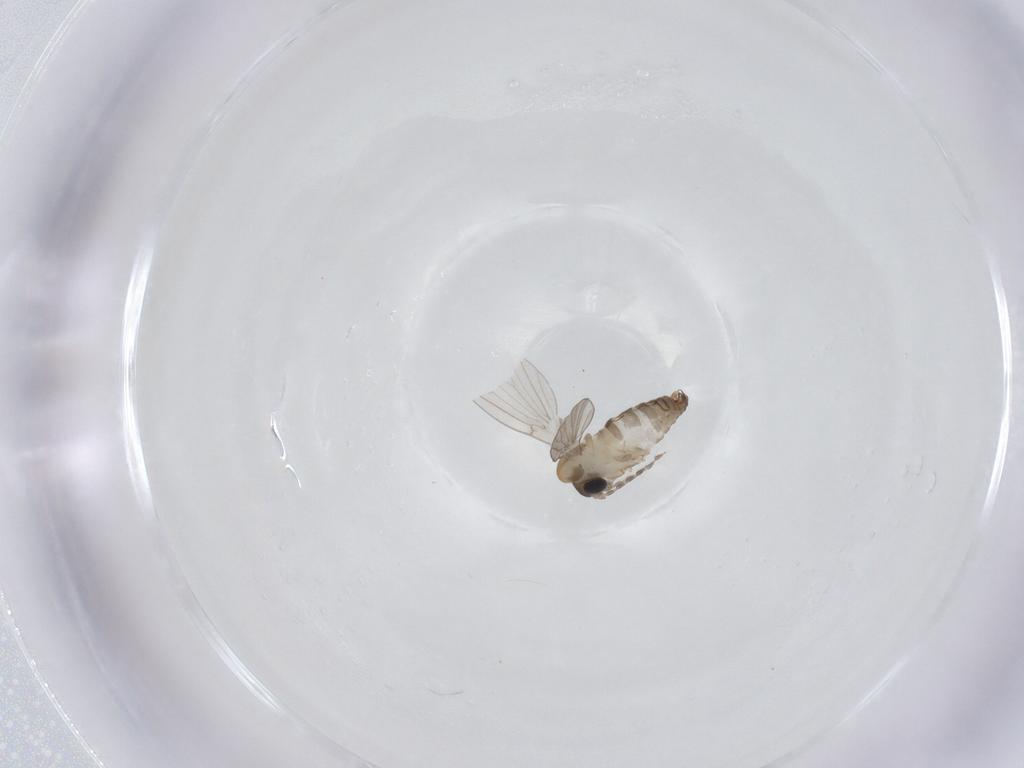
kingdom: Animalia
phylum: Arthropoda
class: Insecta
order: Diptera
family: Psychodidae
